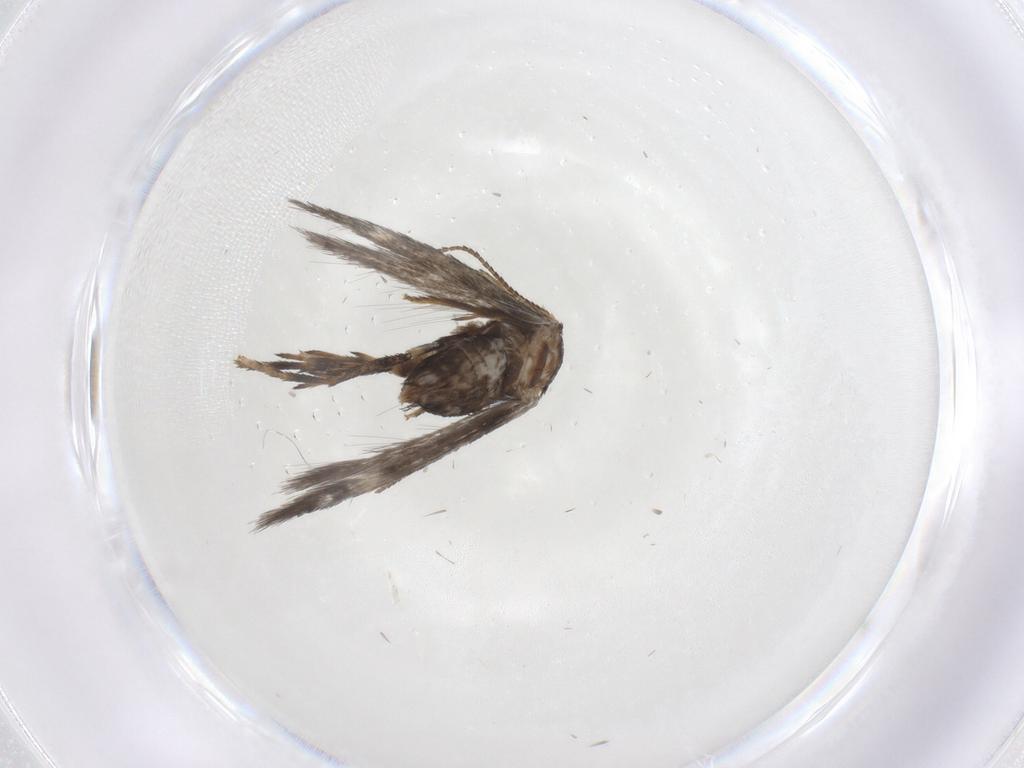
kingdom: Animalia
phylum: Arthropoda
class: Insecta
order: Lepidoptera
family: Nepticulidae
